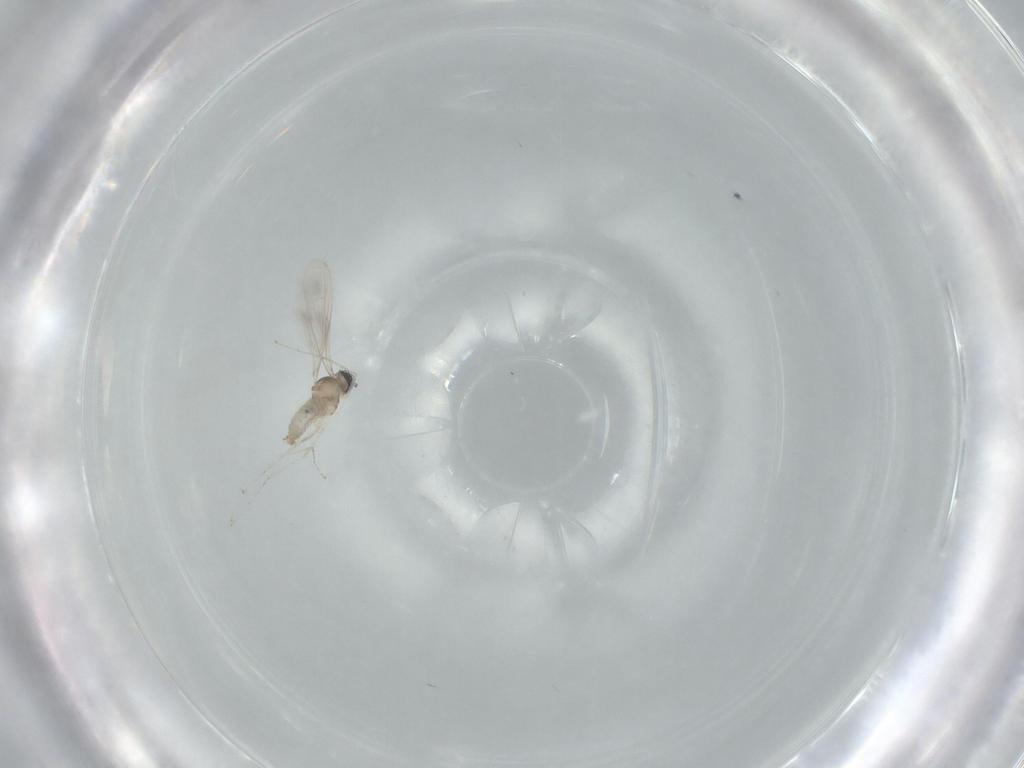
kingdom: Animalia
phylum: Arthropoda
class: Insecta
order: Diptera
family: Cecidomyiidae
